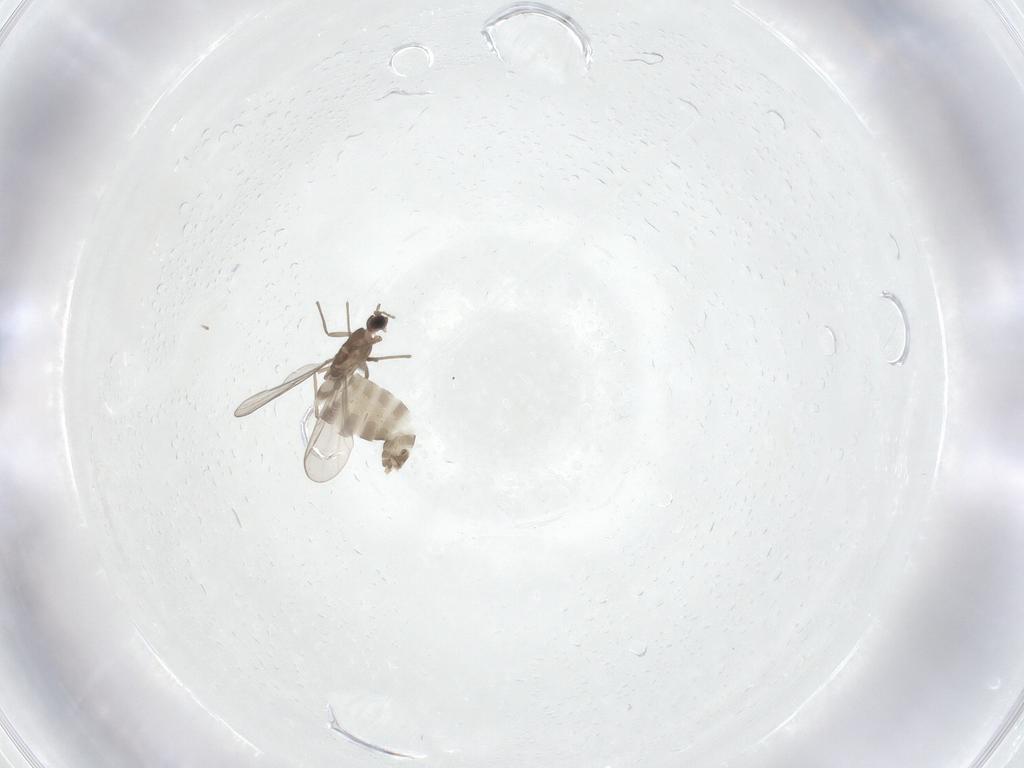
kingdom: Animalia
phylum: Arthropoda
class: Insecta
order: Diptera
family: Chironomidae
